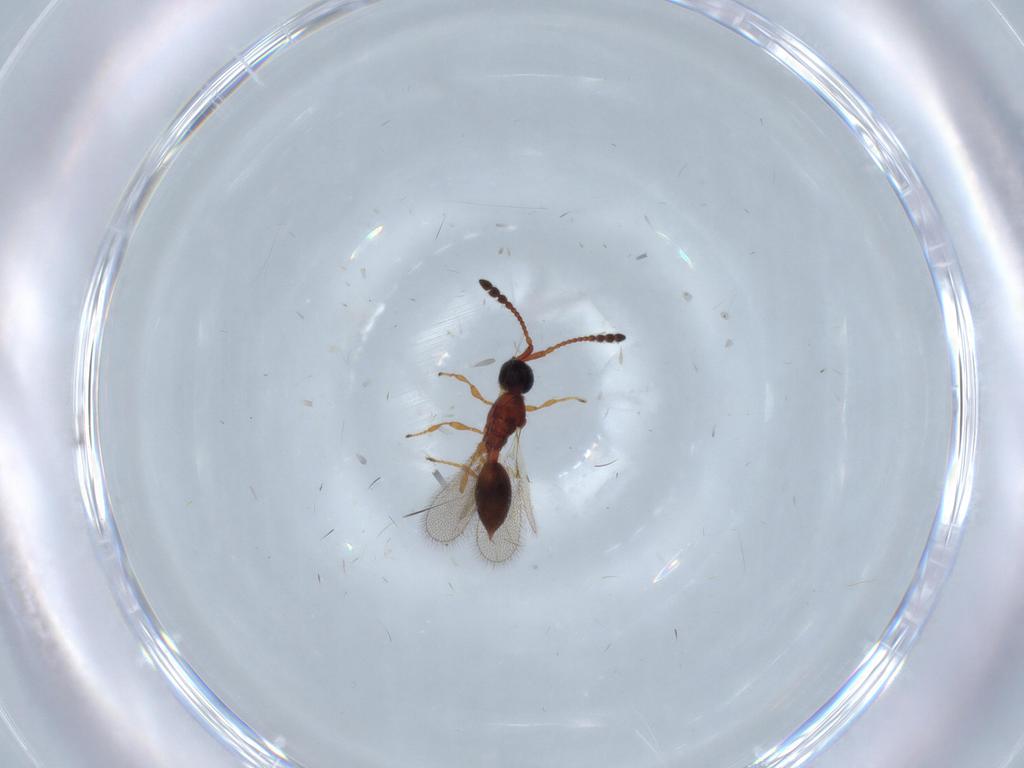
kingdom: Animalia
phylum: Arthropoda
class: Insecta
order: Hymenoptera
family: Diapriidae
